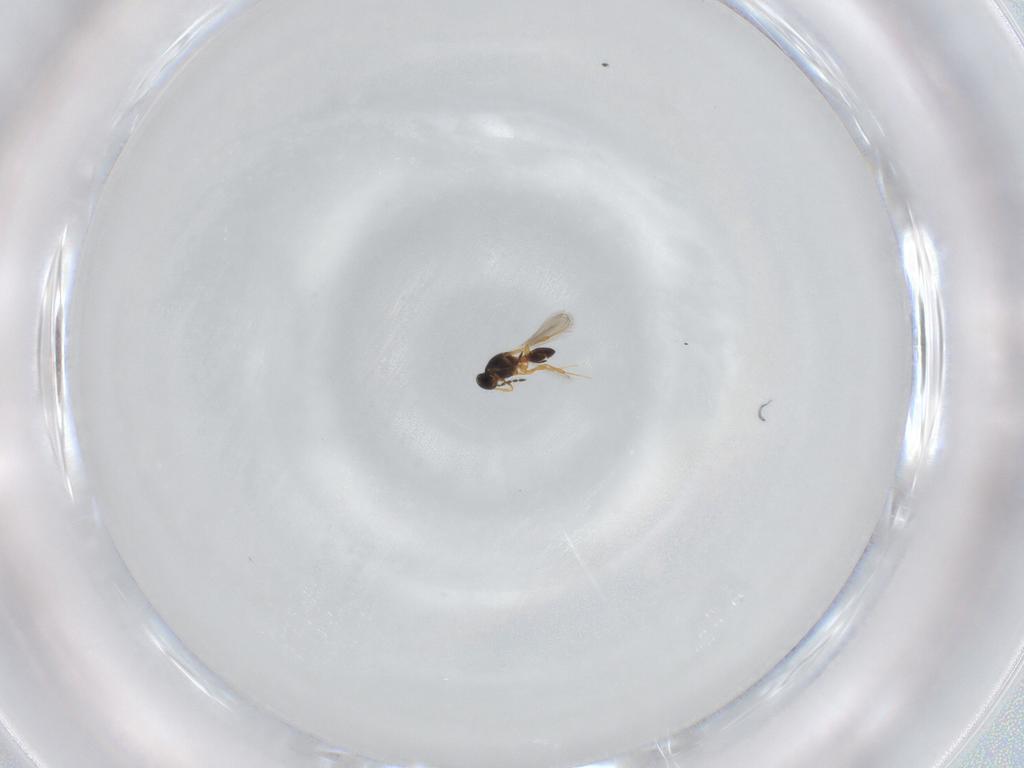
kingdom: Animalia
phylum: Arthropoda
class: Insecta
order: Hymenoptera
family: Platygastridae
